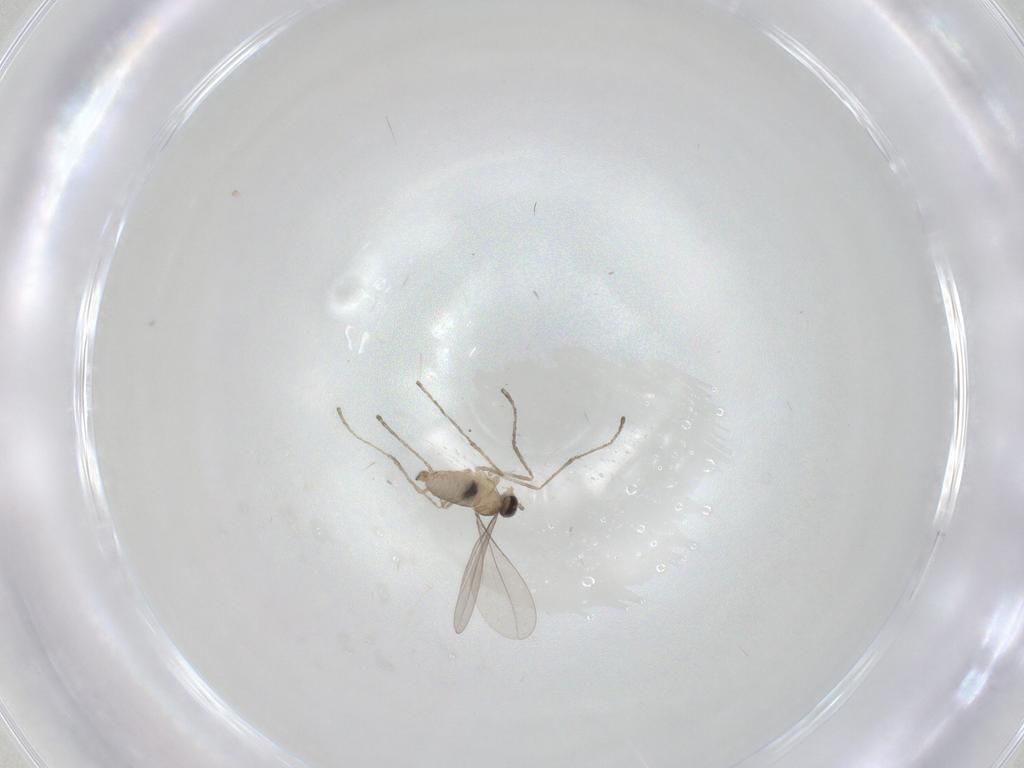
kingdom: Animalia
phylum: Arthropoda
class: Insecta
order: Diptera
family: Cecidomyiidae
